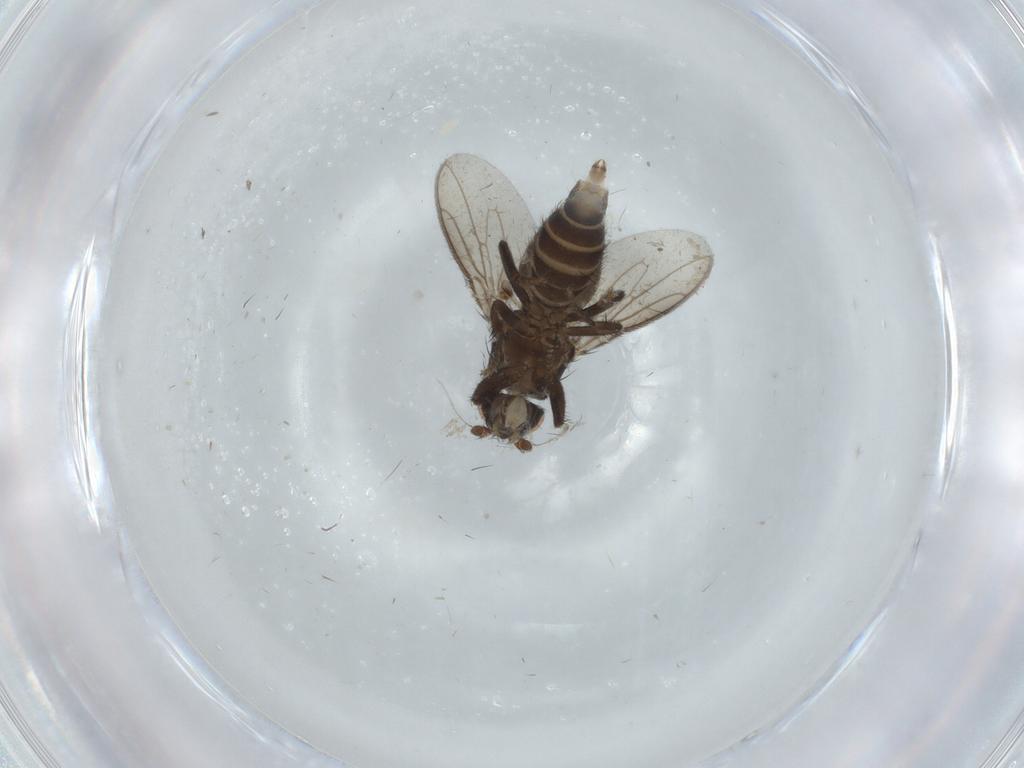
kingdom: Animalia
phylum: Arthropoda
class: Insecta
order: Diptera
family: Sphaeroceridae
